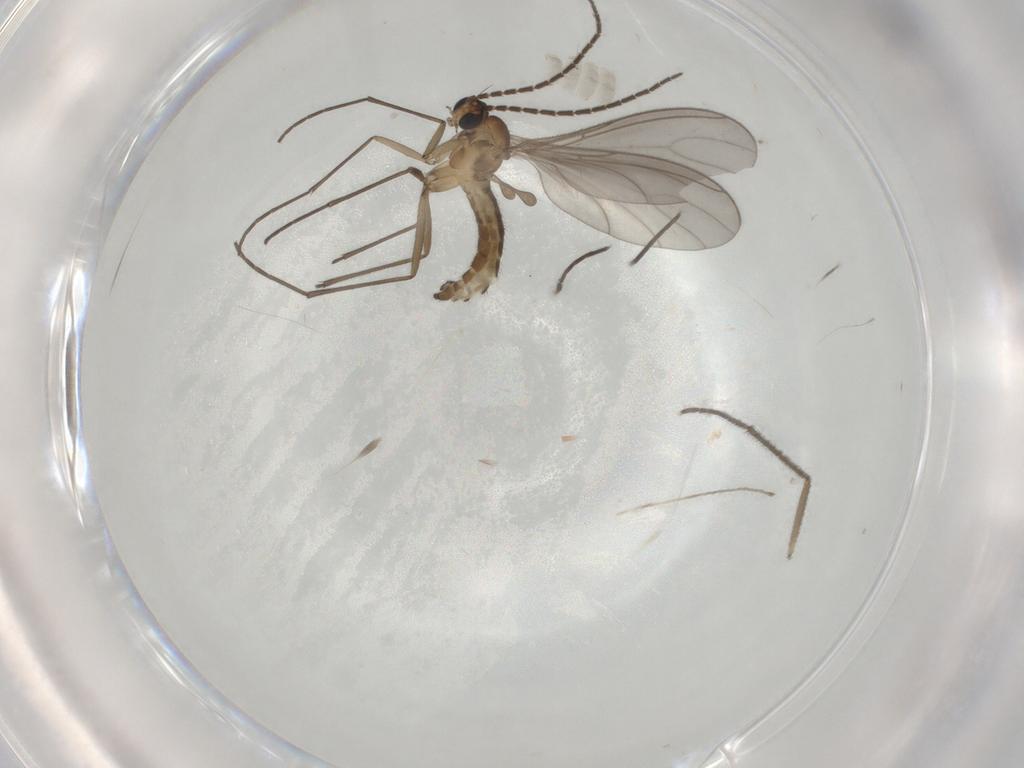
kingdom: Animalia
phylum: Arthropoda
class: Insecta
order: Diptera
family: Sciaridae
